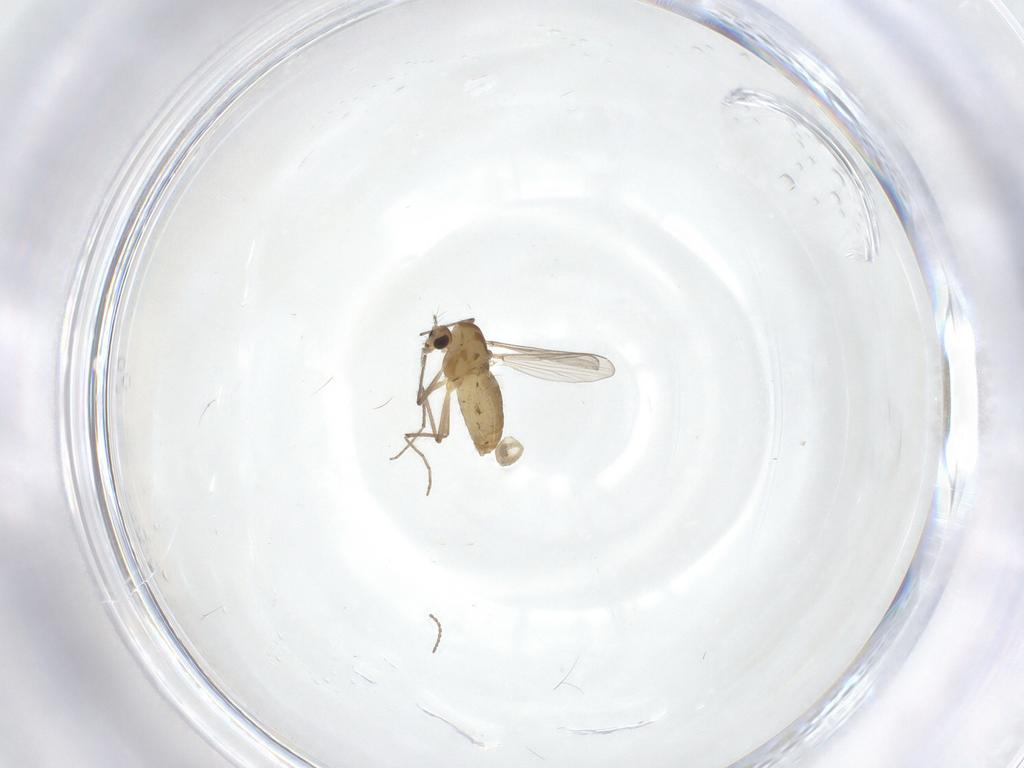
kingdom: Animalia
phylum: Arthropoda
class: Insecta
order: Diptera
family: Chironomidae
